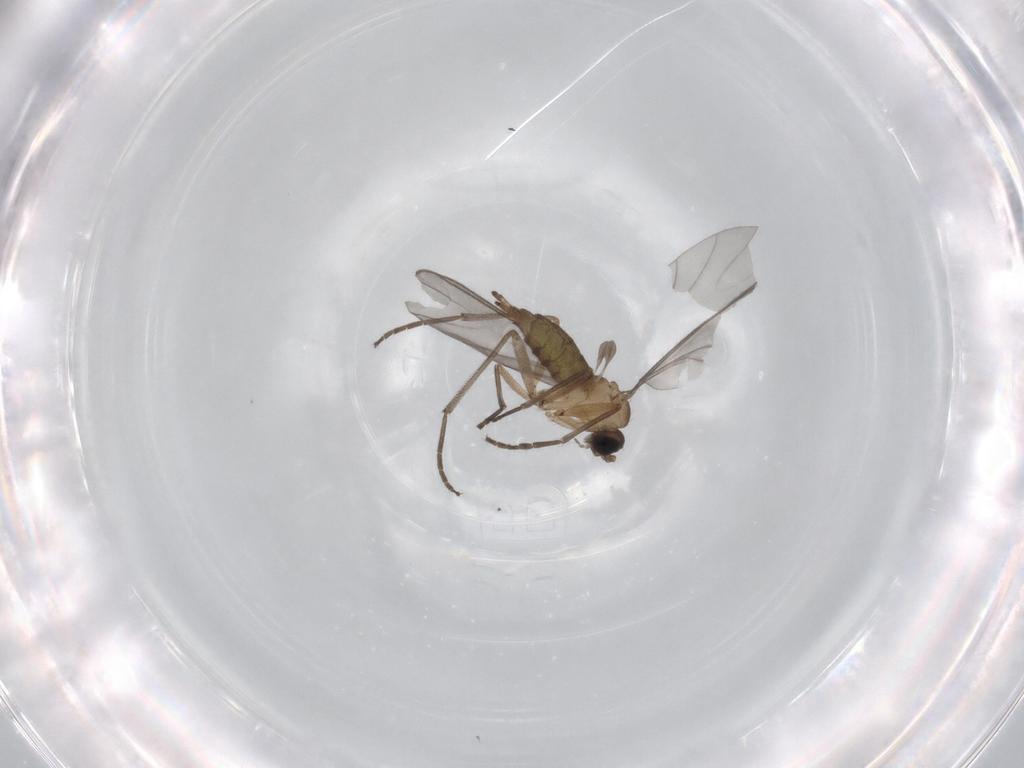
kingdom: Animalia
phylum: Arthropoda
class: Insecta
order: Diptera
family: Sciaridae
